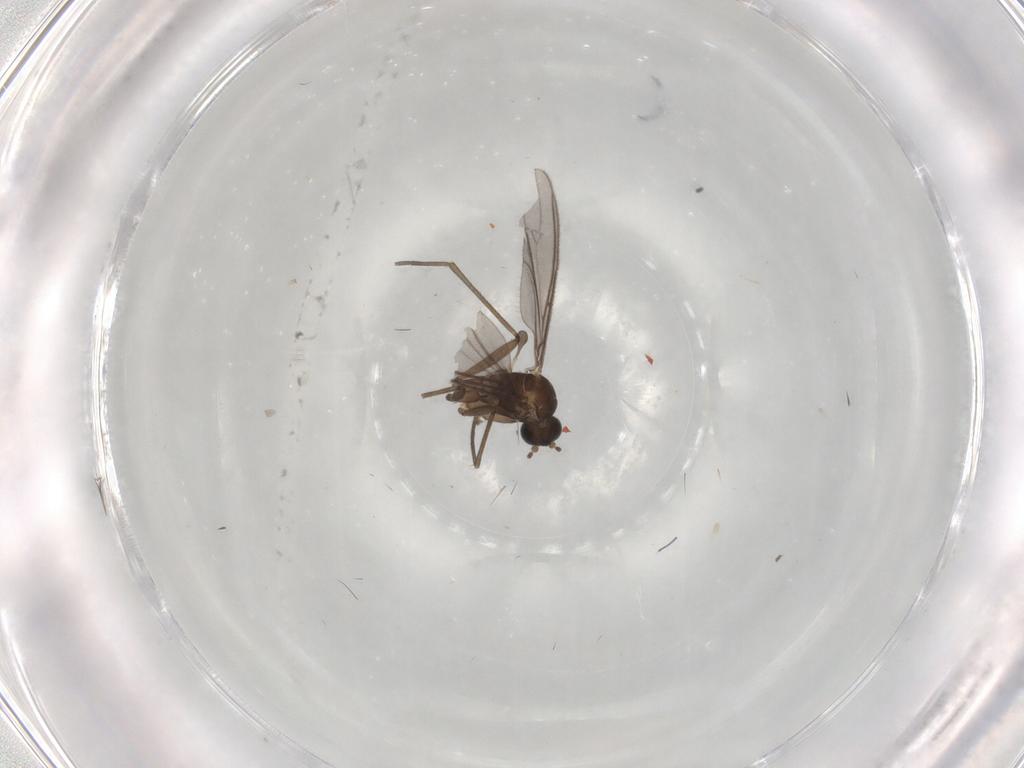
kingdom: Animalia
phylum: Arthropoda
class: Insecta
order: Diptera
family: Sciaridae
